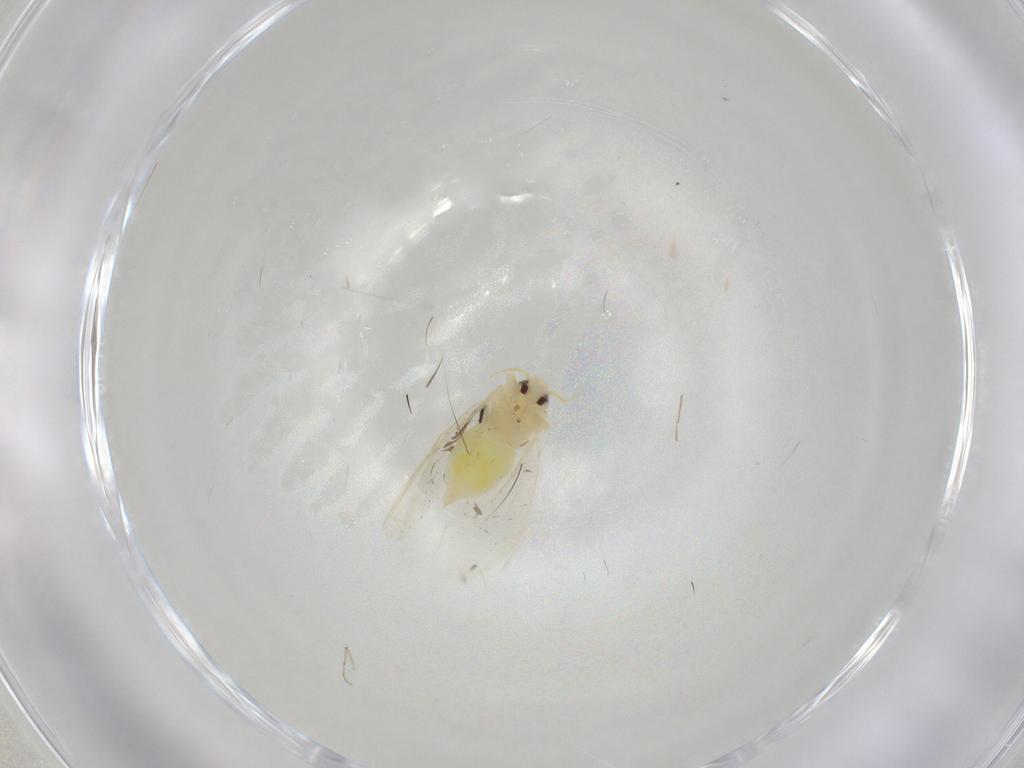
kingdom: Animalia
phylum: Arthropoda
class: Insecta
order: Hemiptera
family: Aleyrodidae
